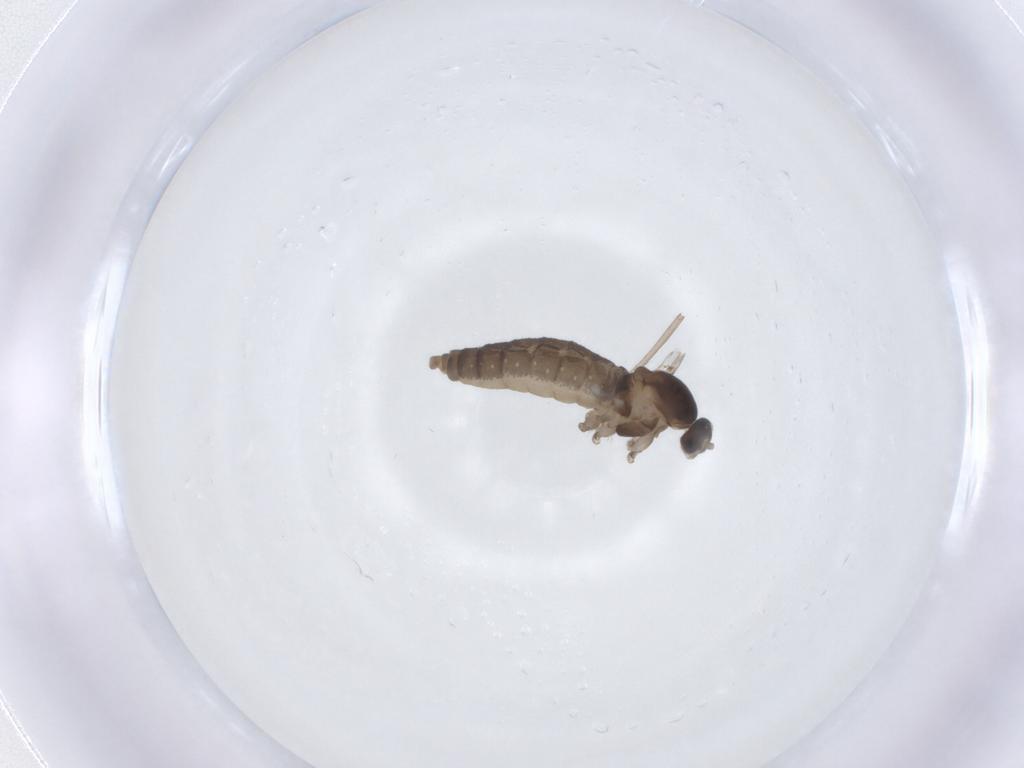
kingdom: Animalia
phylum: Arthropoda
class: Insecta
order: Diptera
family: Cecidomyiidae
